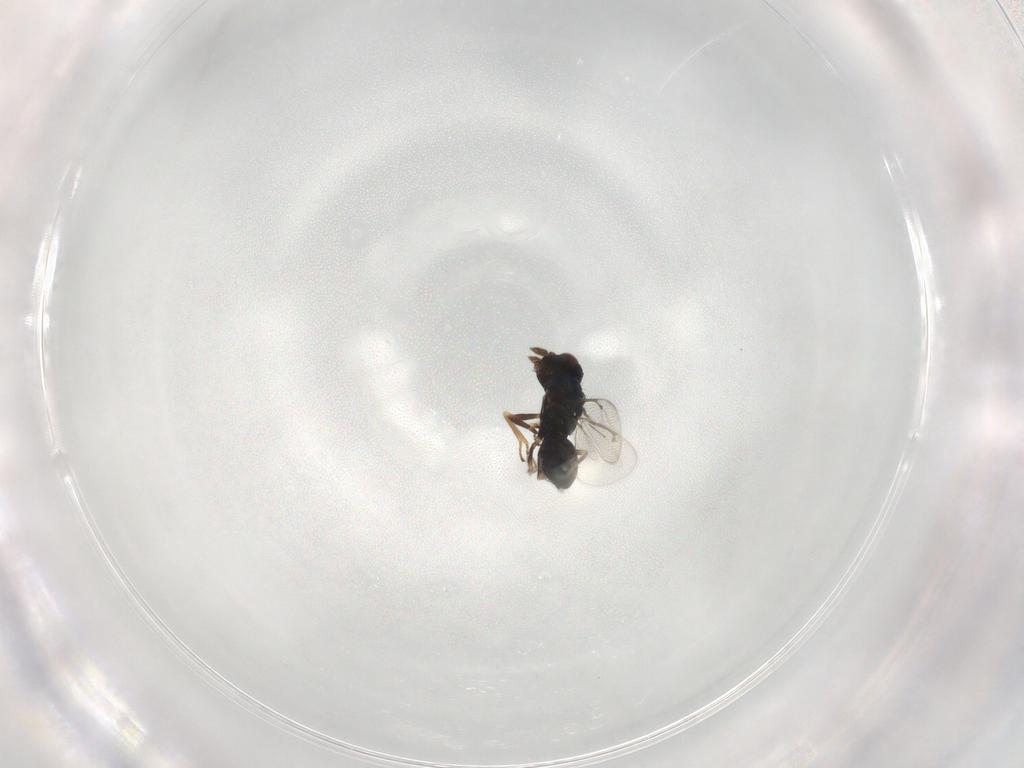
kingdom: Animalia
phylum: Arthropoda
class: Insecta
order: Hymenoptera
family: Eulophidae
